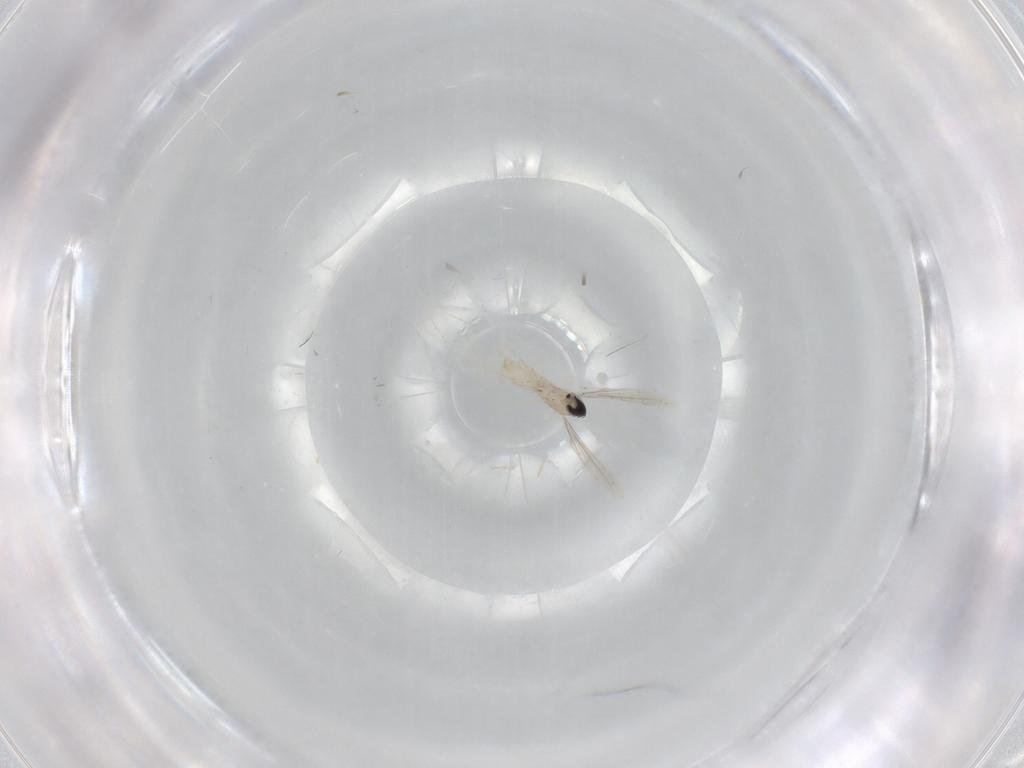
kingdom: Animalia
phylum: Arthropoda
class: Insecta
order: Diptera
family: Cecidomyiidae
